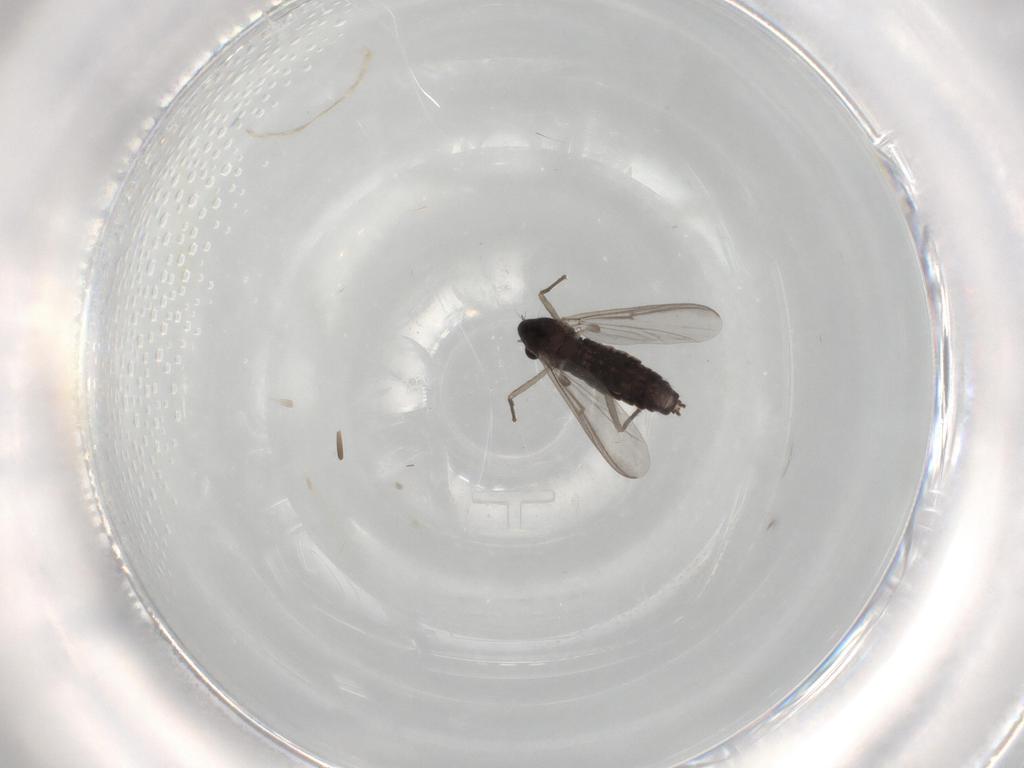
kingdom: Animalia
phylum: Arthropoda
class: Insecta
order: Diptera
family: Chironomidae
